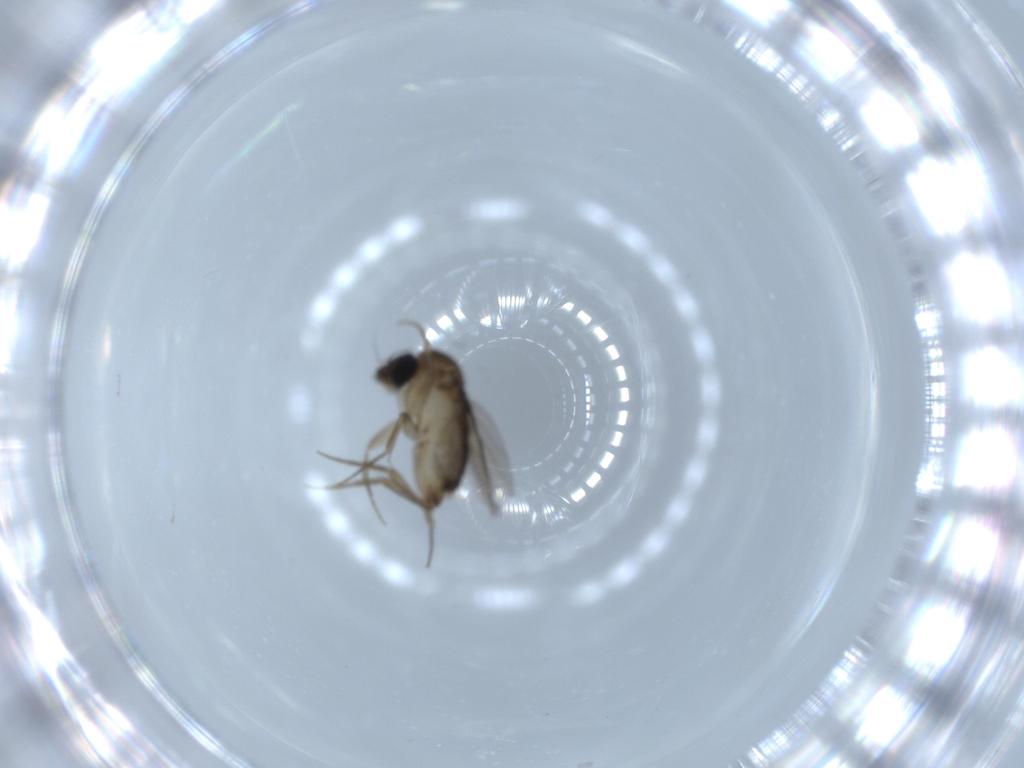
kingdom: Animalia
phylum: Arthropoda
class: Insecta
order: Diptera
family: Phoridae
